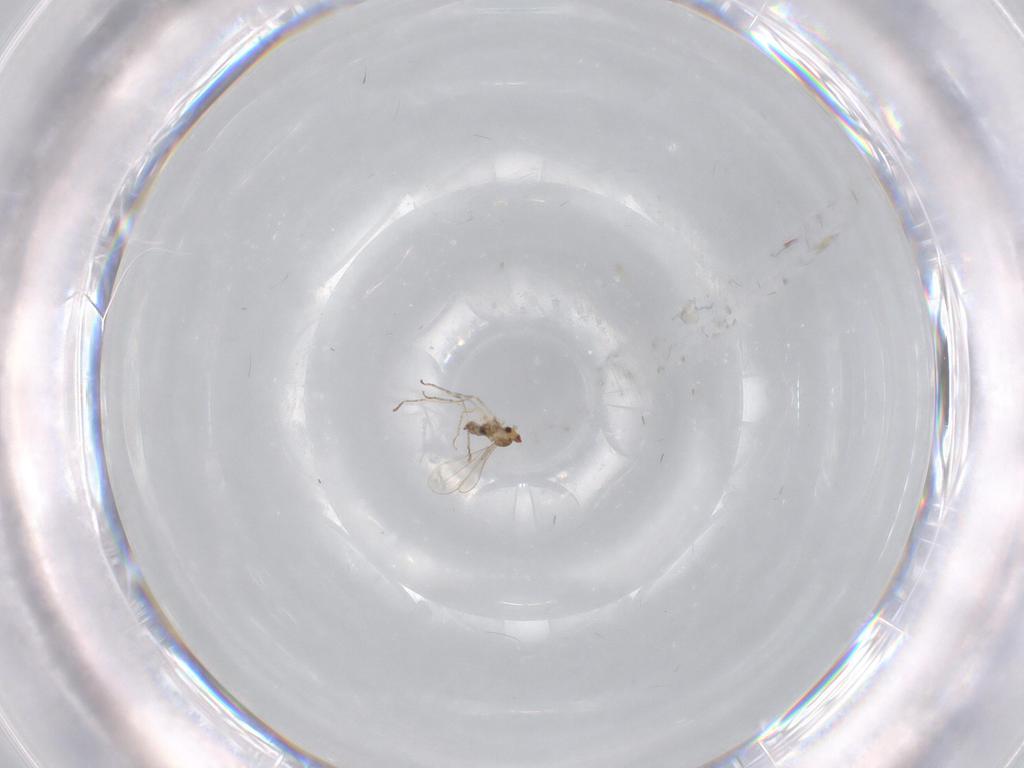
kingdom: Animalia
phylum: Arthropoda
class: Insecta
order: Diptera
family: Cecidomyiidae
